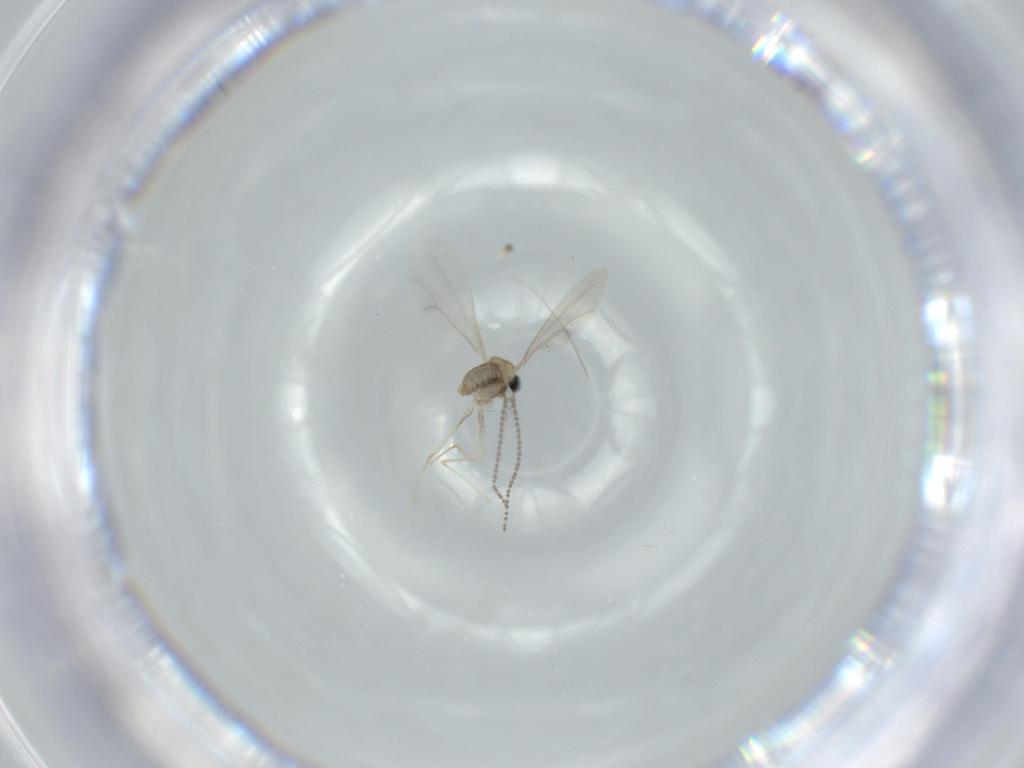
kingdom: Animalia
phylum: Arthropoda
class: Insecta
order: Diptera
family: Cecidomyiidae
